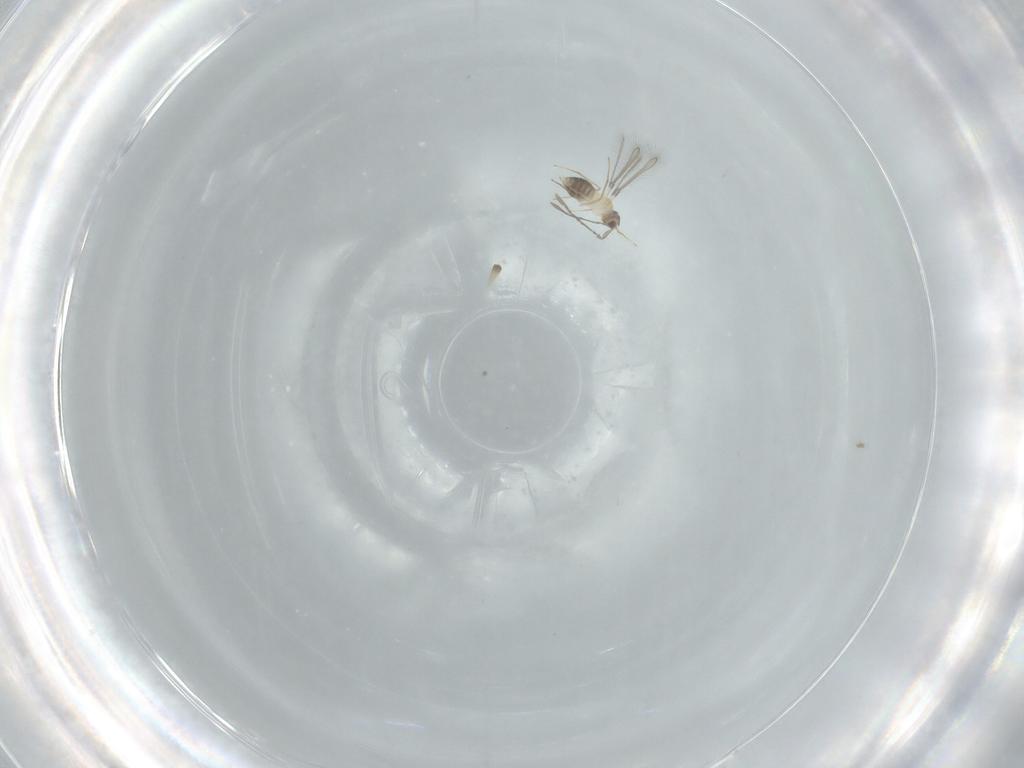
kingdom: Animalia
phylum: Arthropoda
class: Insecta
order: Hymenoptera
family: Mymaridae
